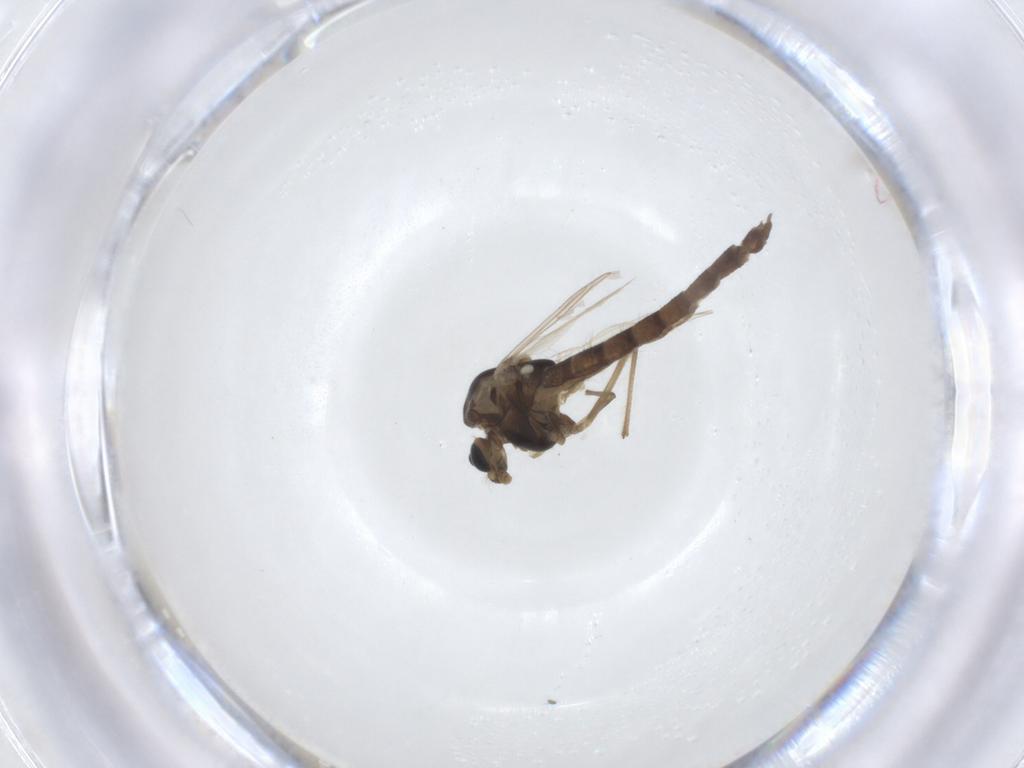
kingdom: Animalia
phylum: Arthropoda
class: Insecta
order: Diptera
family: Chironomidae
